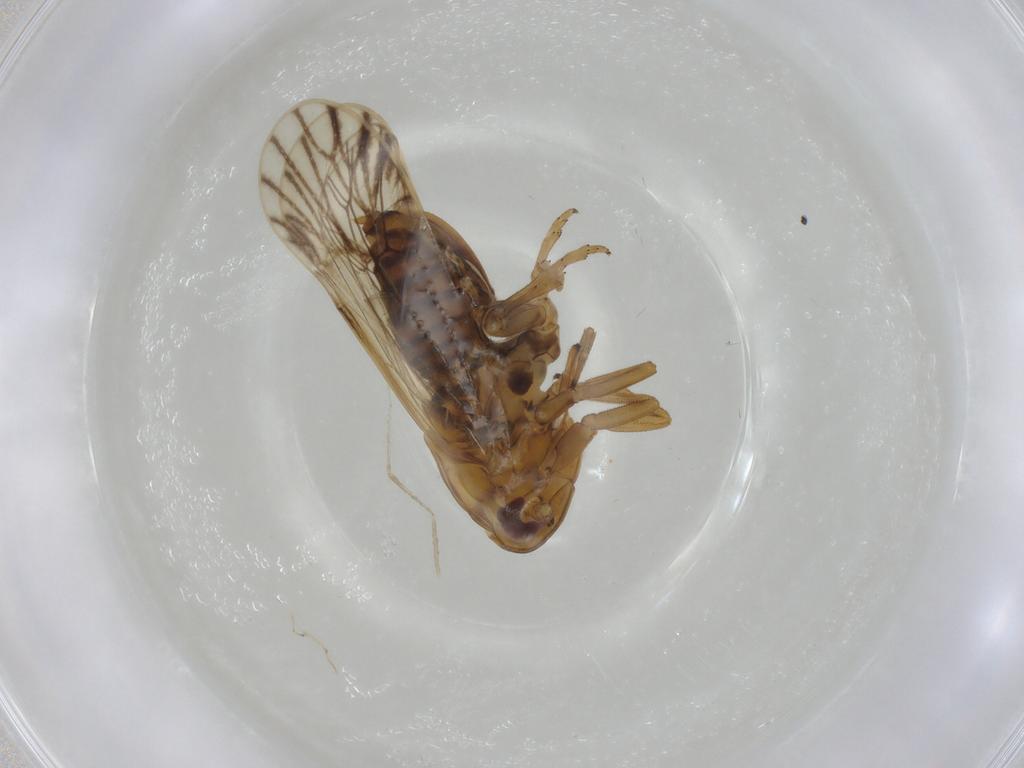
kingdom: Animalia
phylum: Arthropoda
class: Insecta
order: Hemiptera
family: Delphacidae
